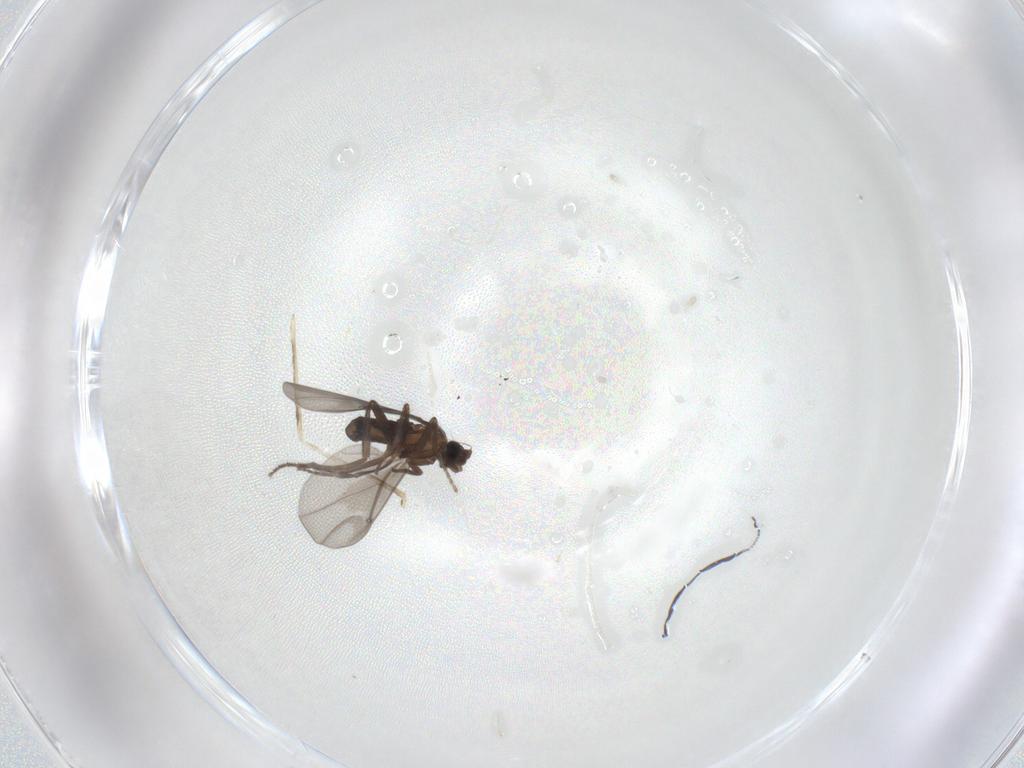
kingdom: Animalia
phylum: Arthropoda
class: Insecta
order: Diptera
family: Phoridae
